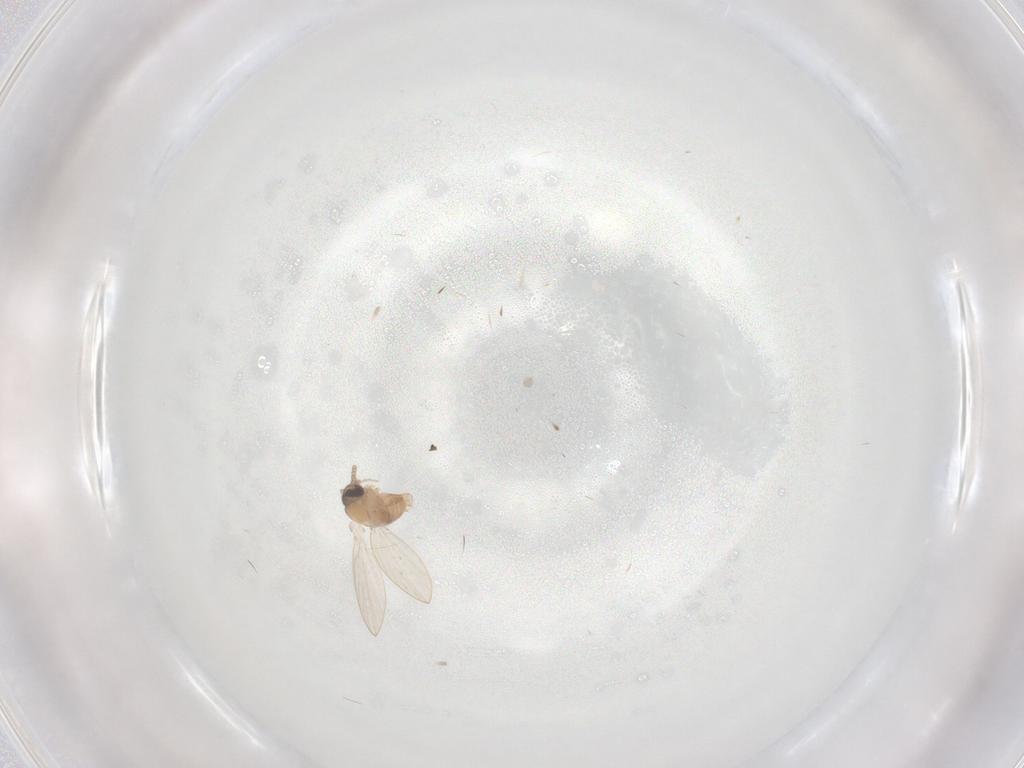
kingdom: Animalia
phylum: Arthropoda
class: Insecta
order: Diptera
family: Psychodidae
